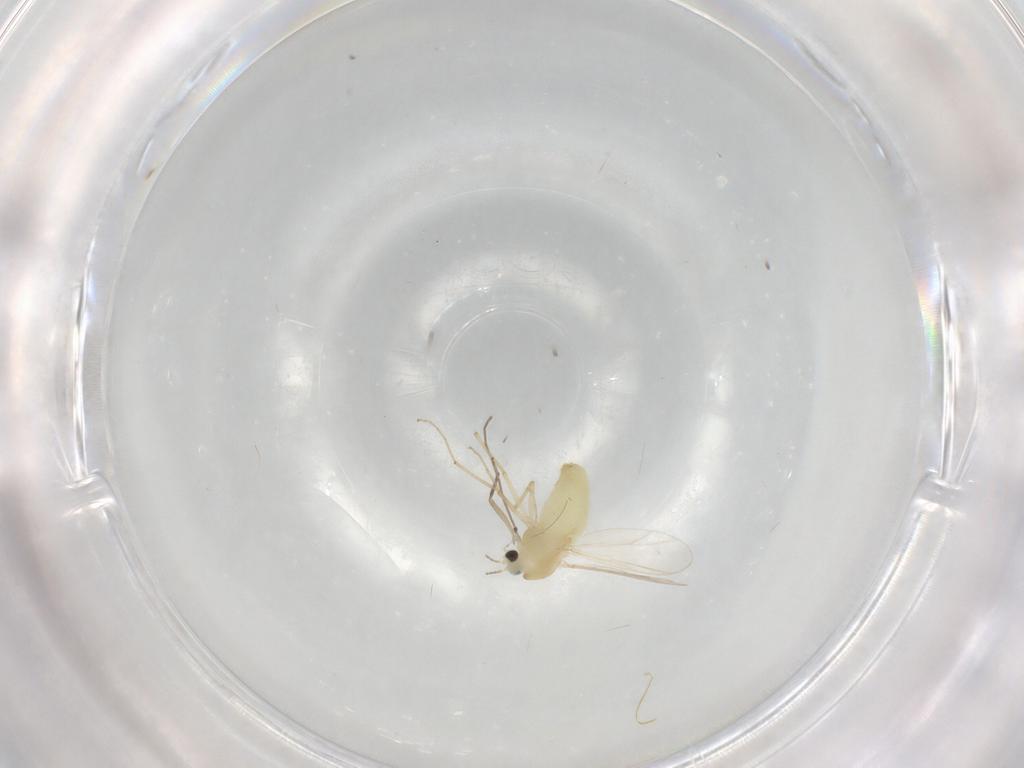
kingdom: Animalia
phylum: Arthropoda
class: Insecta
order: Diptera
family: Chironomidae
